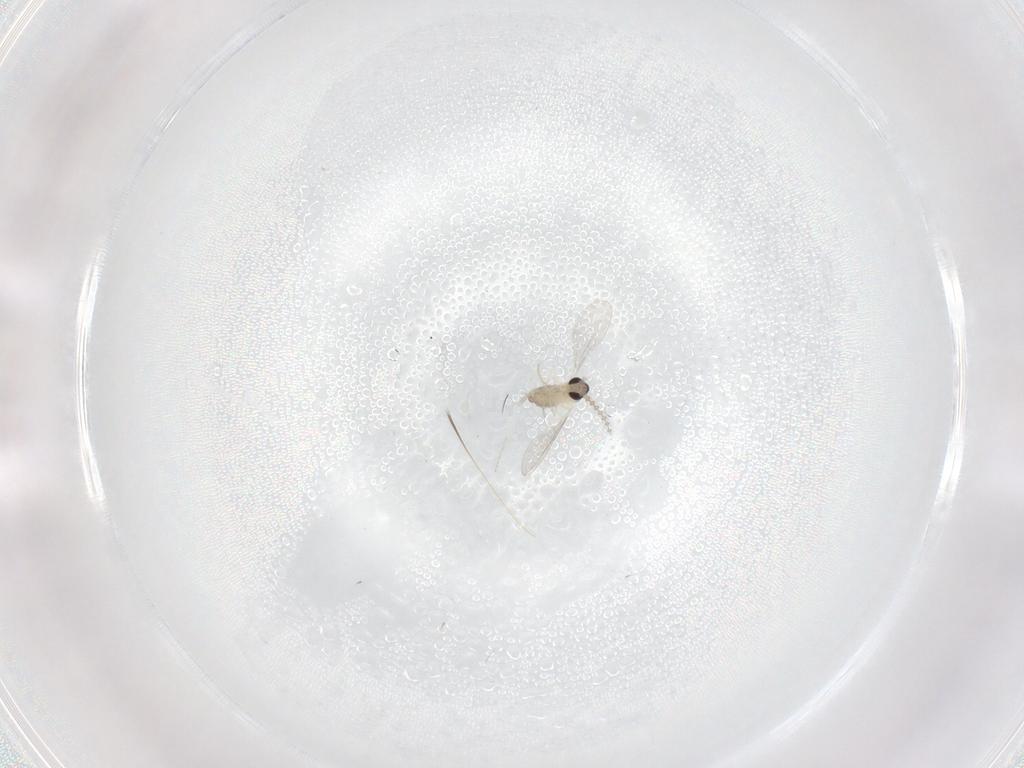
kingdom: Animalia
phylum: Arthropoda
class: Insecta
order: Diptera
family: Cecidomyiidae
